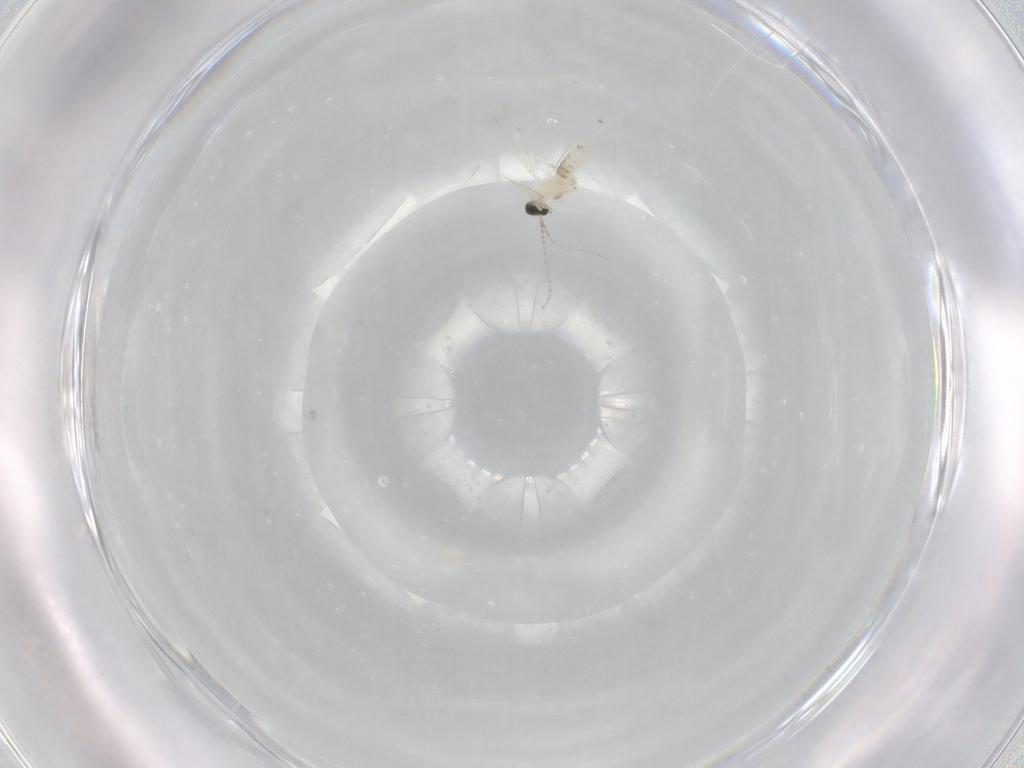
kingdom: Animalia
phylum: Arthropoda
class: Insecta
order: Diptera
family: Cecidomyiidae
